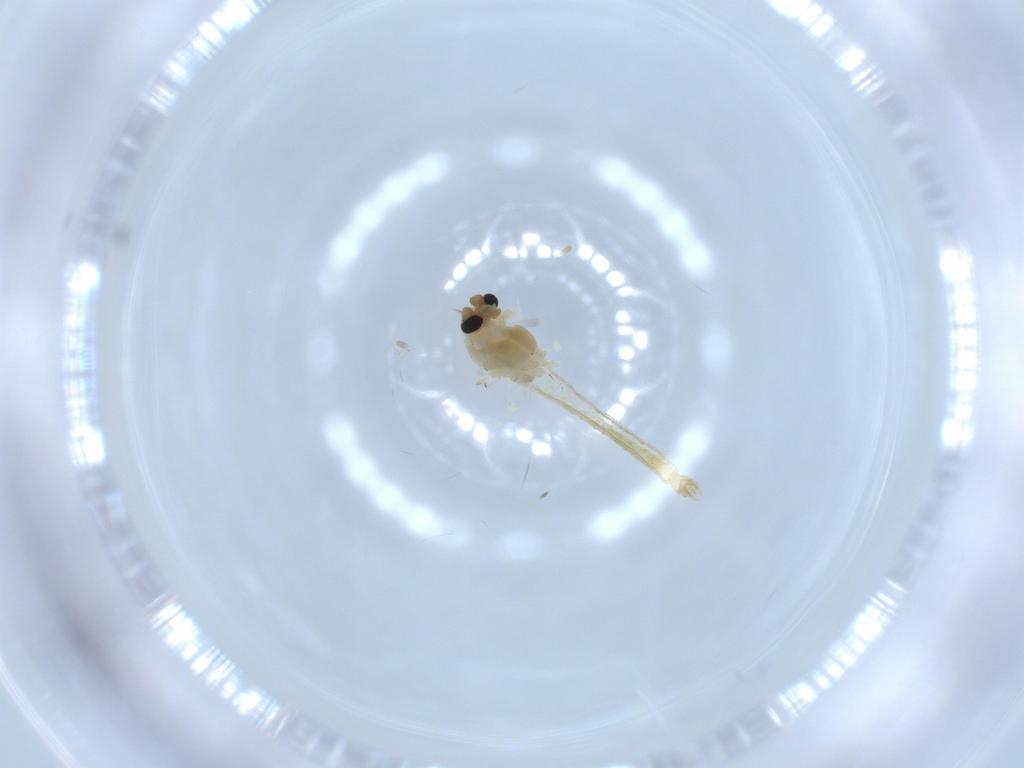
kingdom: Animalia
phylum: Arthropoda
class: Insecta
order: Diptera
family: Chironomidae
